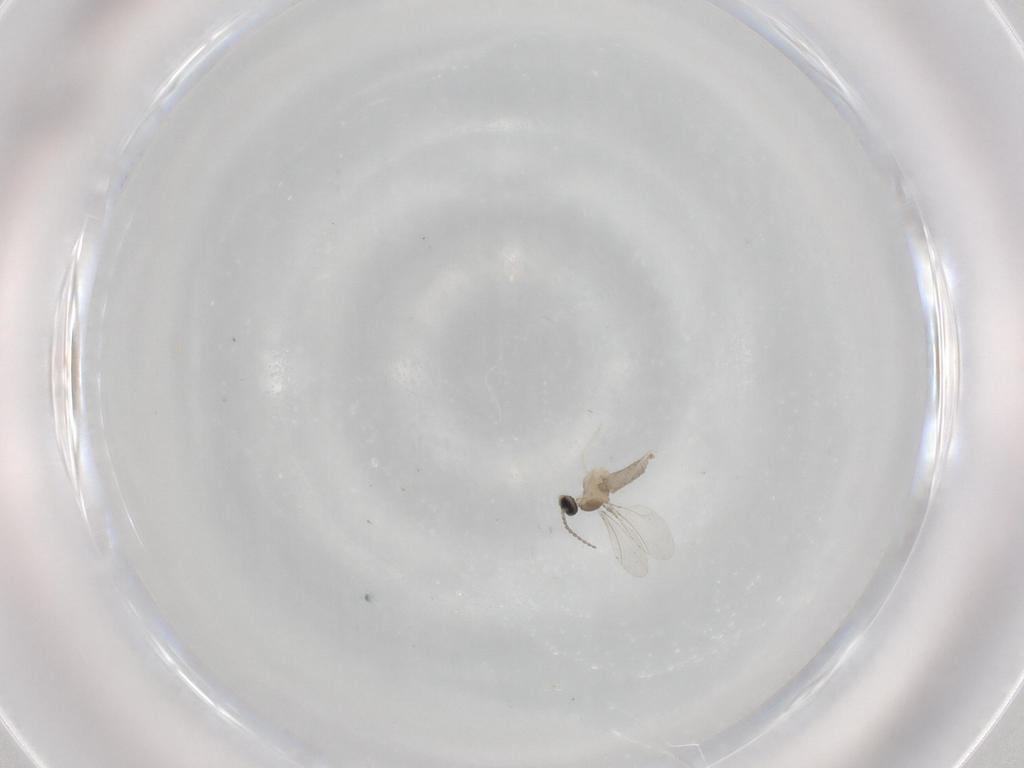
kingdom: Animalia
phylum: Arthropoda
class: Insecta
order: Diptera
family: Cecidomyiidae
